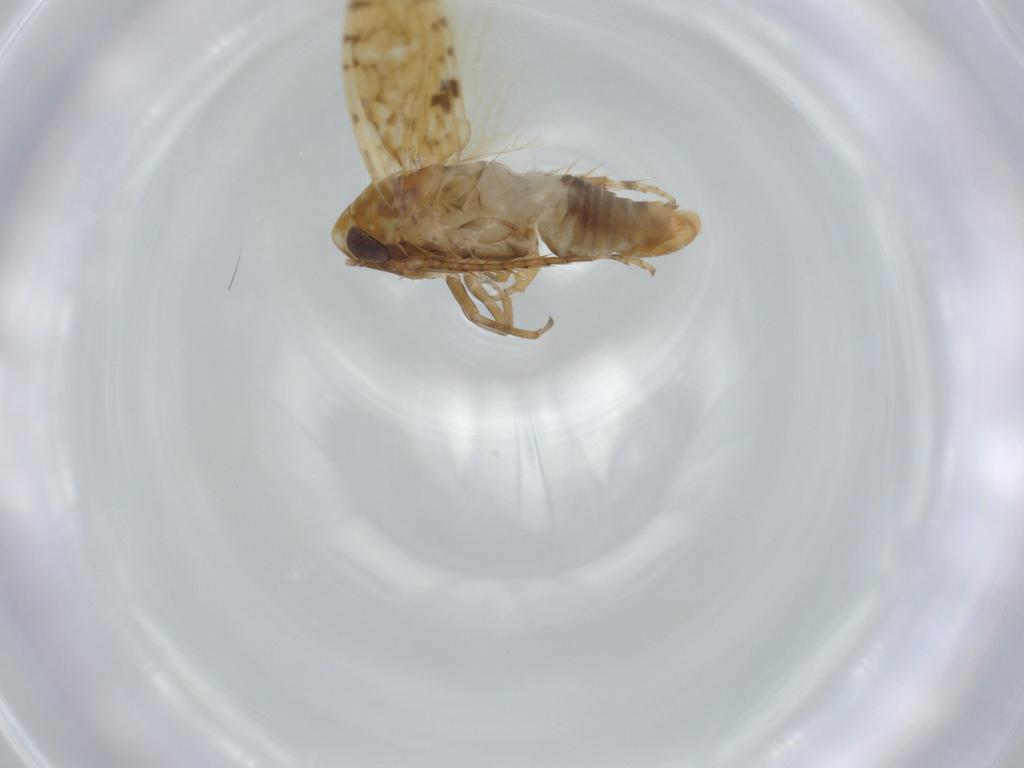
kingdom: Animalia
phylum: Arthropoda
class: Insecta
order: Hemiptera
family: Cicadellidae
